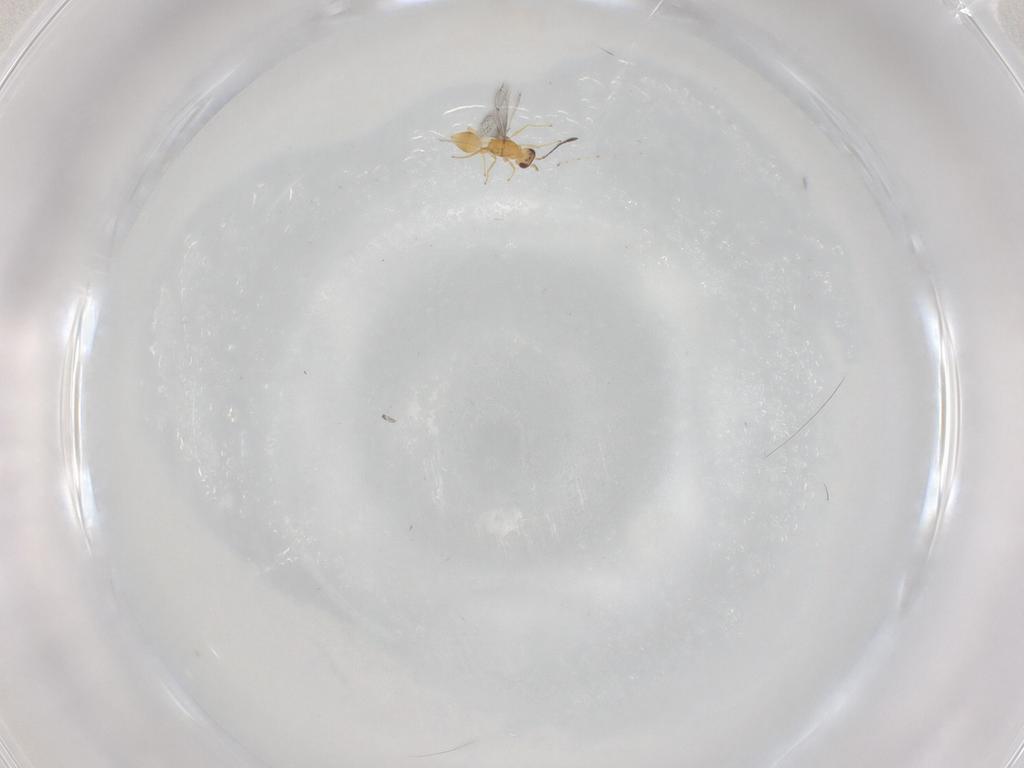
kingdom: Animalia
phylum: Arthropoda
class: Insecta
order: Hymenoptera
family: Mymaridae
